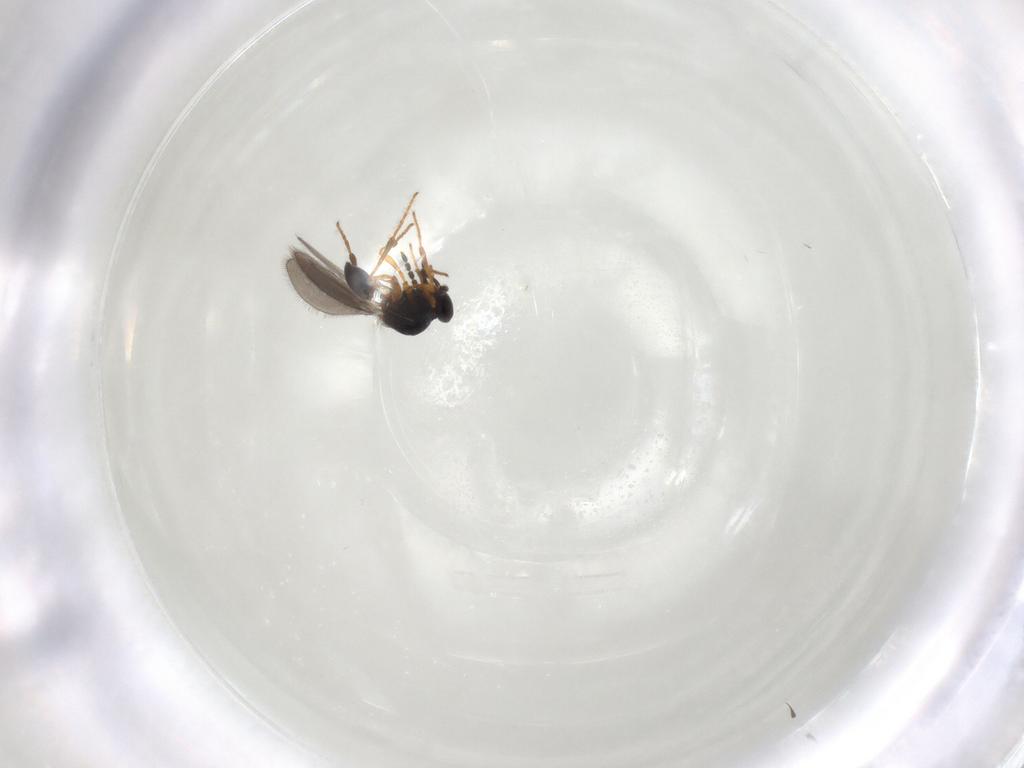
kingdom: Animalia
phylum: Arthropoda
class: Insecta
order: Hymenoptera
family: Platygastridae
